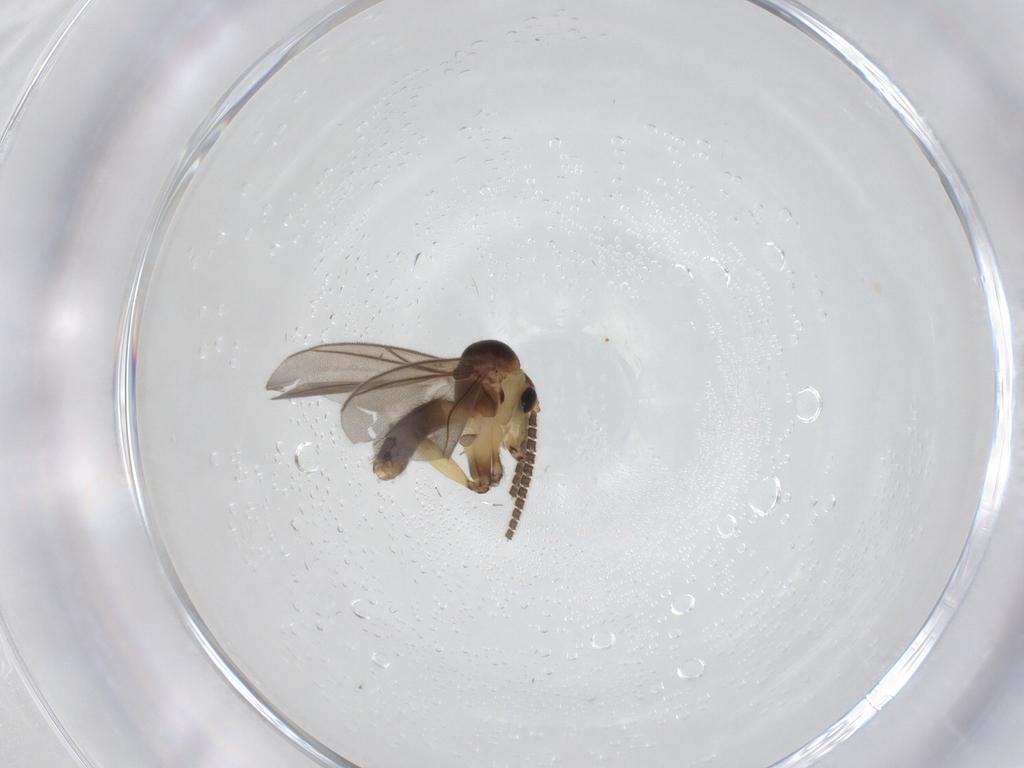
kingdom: Animalia
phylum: Arthropoda
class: Insecta
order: Diptera
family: Mycetophilidae
